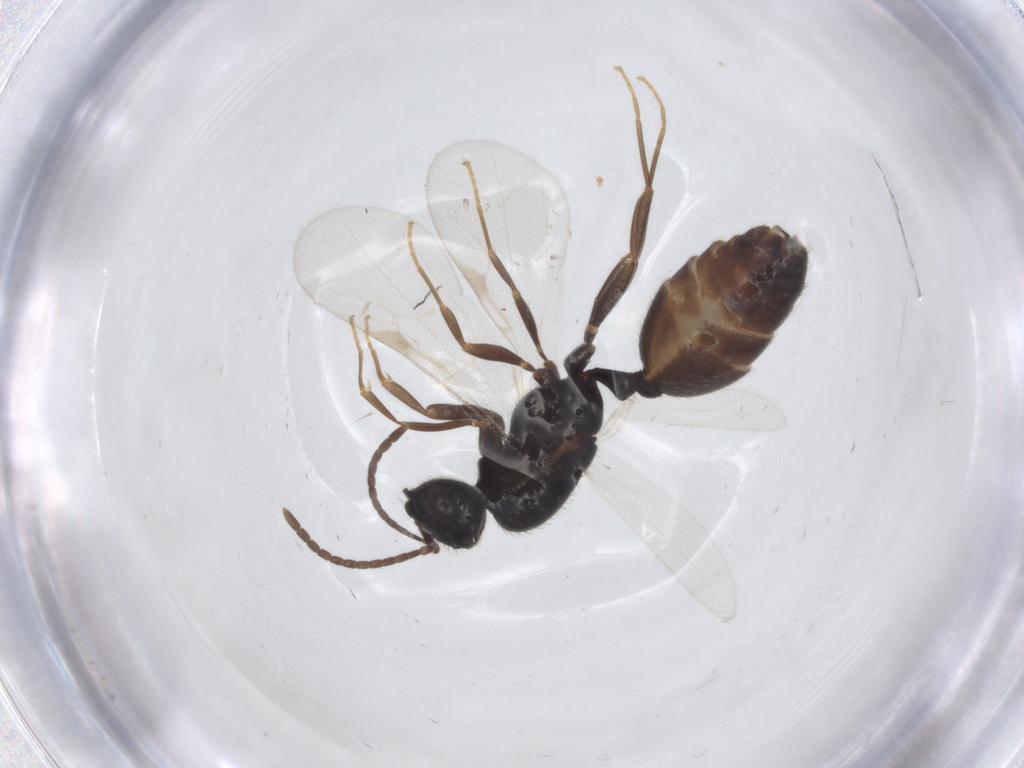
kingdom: Animalia
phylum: Arthropoda
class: Insecta
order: Hymenoptera
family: Formicidae
